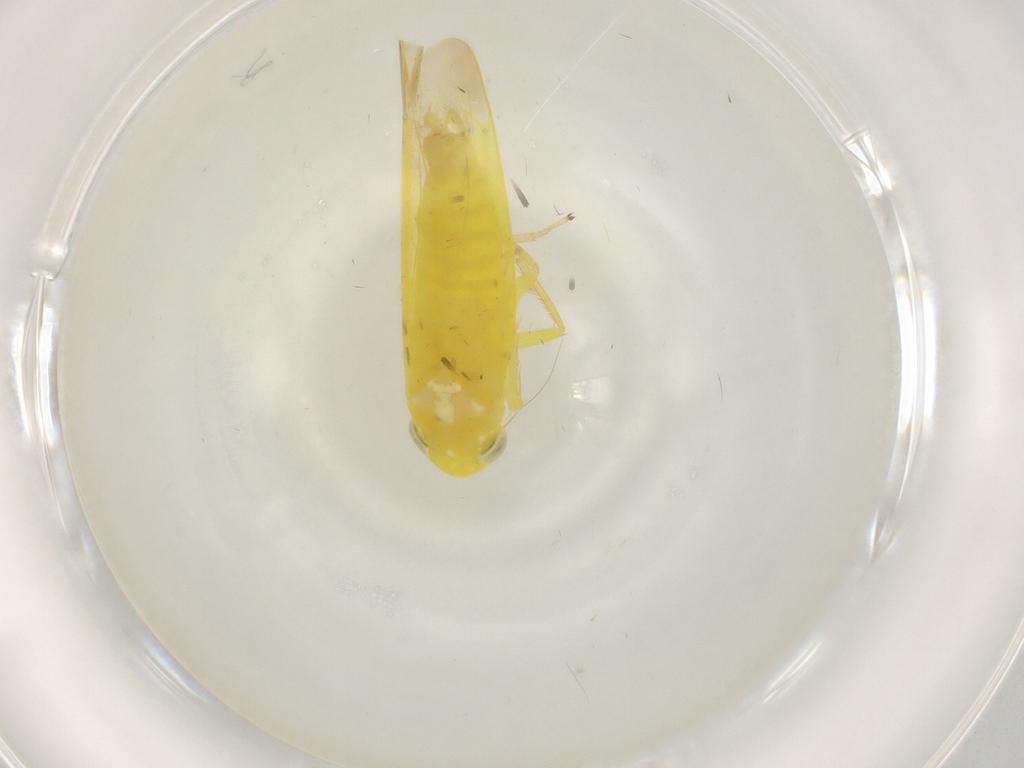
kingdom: Animalia
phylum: Arthropoda
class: Insecta
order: Hemiptera
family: Cicadellidae
